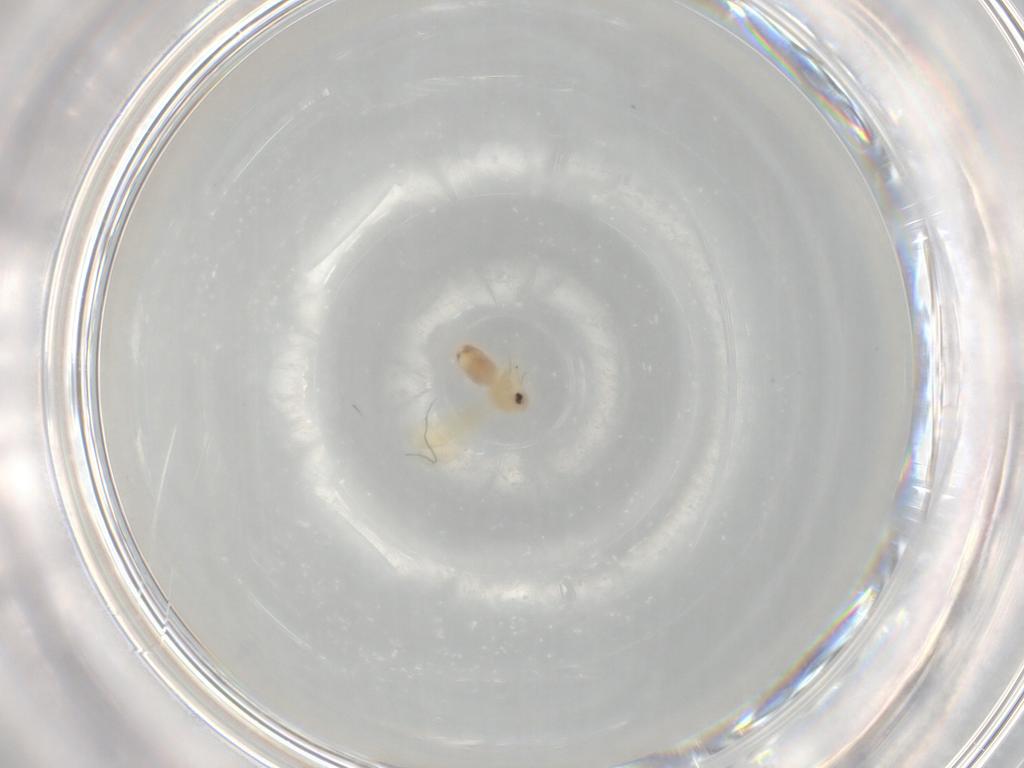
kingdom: Animalia
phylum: Arthropoda
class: Insecta
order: Hemiptera
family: Aleyrodidae
